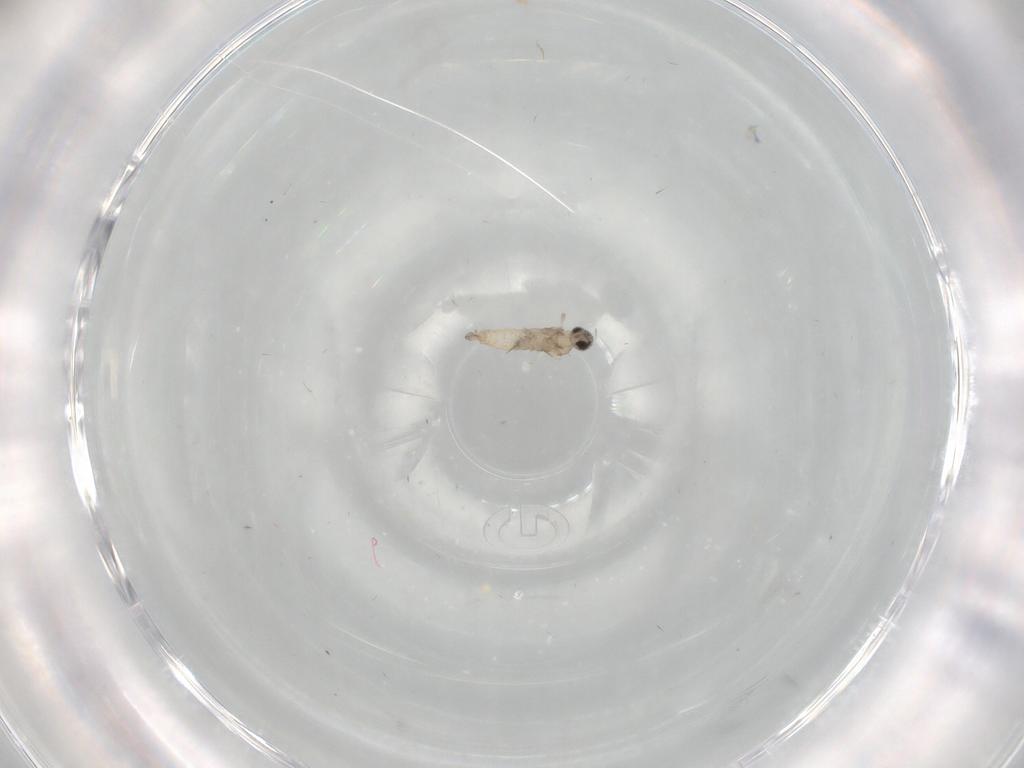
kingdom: Animalia
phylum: Arthropoda
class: Insecta
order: Diptera
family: Cecidomyiidae
